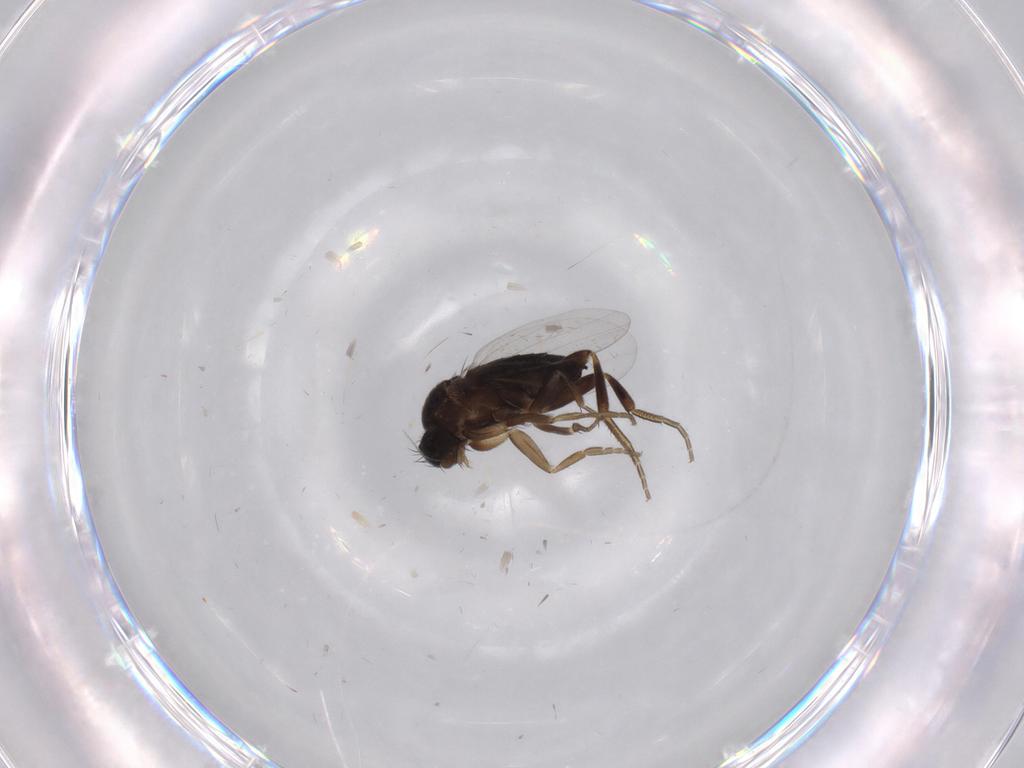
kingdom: Animalia
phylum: Arthropoda
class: Insecta
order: Diptera
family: Phoridae
